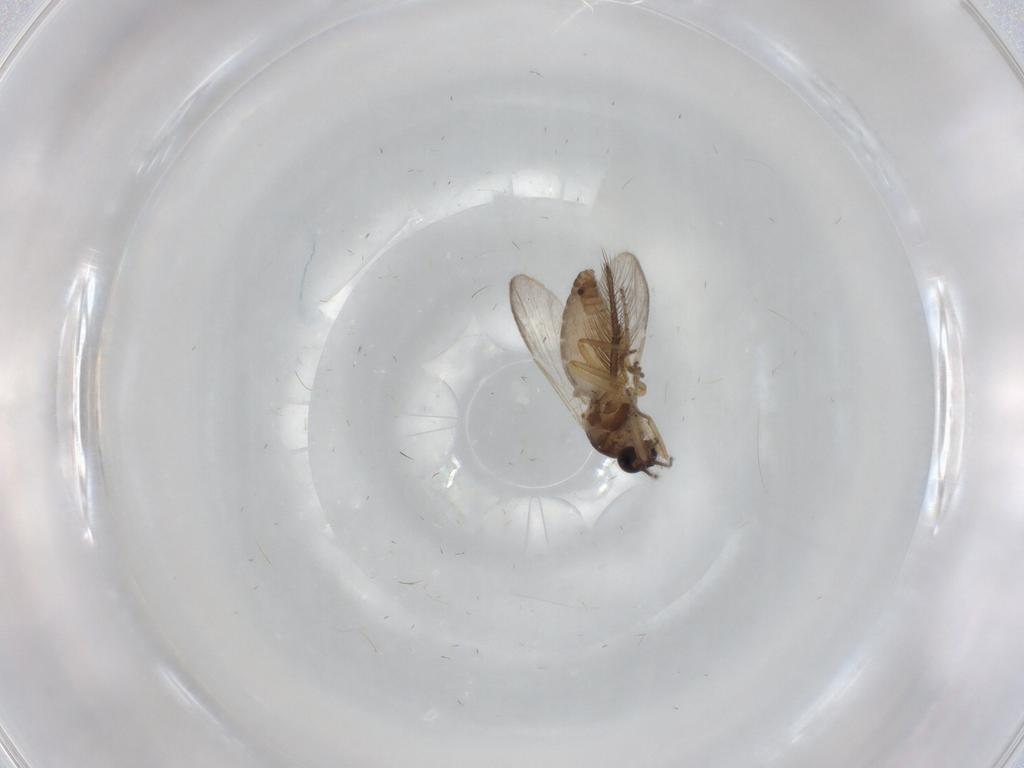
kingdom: Animalia
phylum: Arthropoda
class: Insecta
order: Diptera
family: Ceratopogonidae
